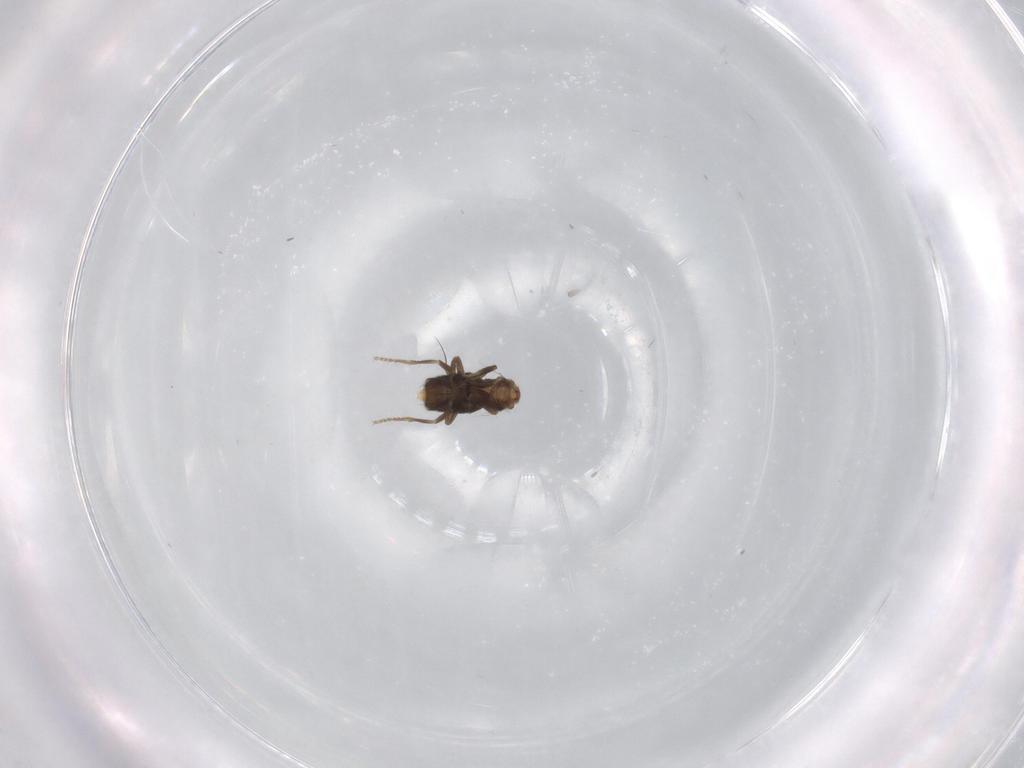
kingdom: Animalia
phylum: Arthropoda
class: Insecta
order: Diptera
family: Phoridae
